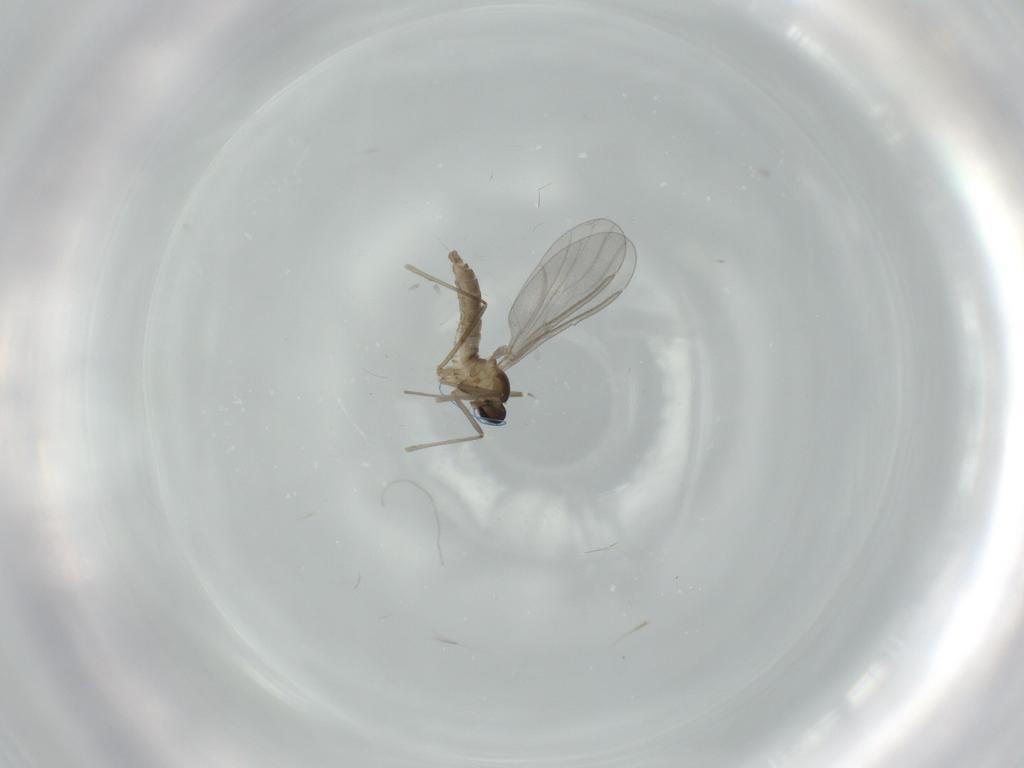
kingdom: Animalia
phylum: Arthropoda
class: Insecta
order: Diptera
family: Cecidomyiidae
